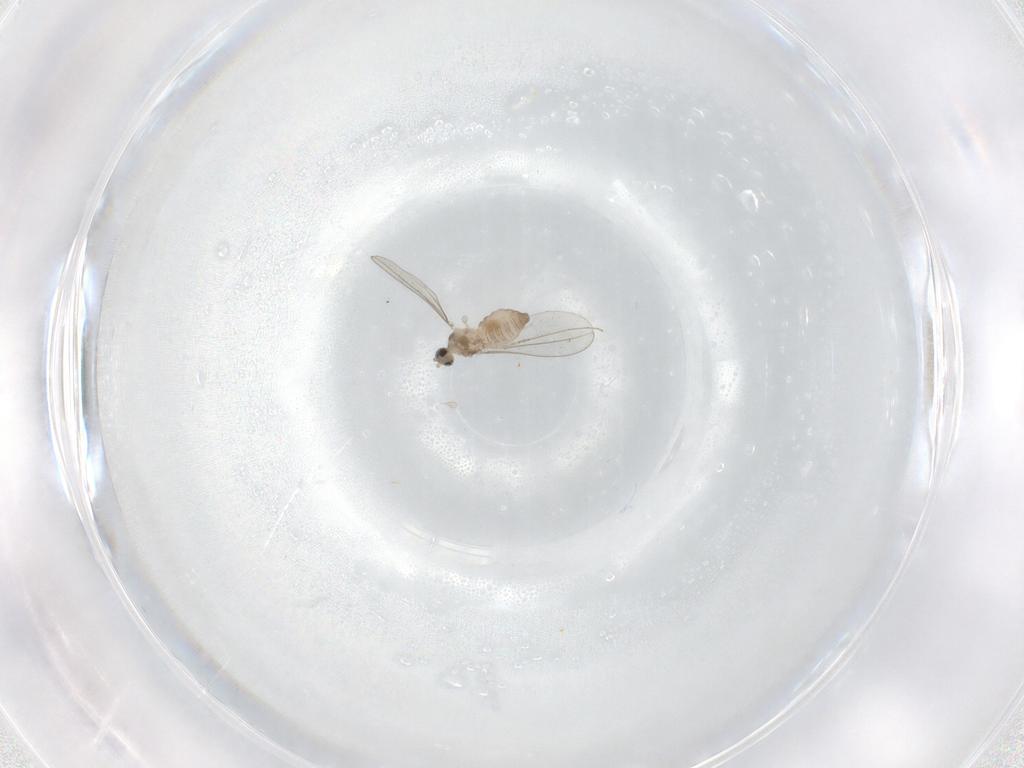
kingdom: Animalia
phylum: Arthropoda
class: Insecta
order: Diptera
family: Cecidomyiidae
